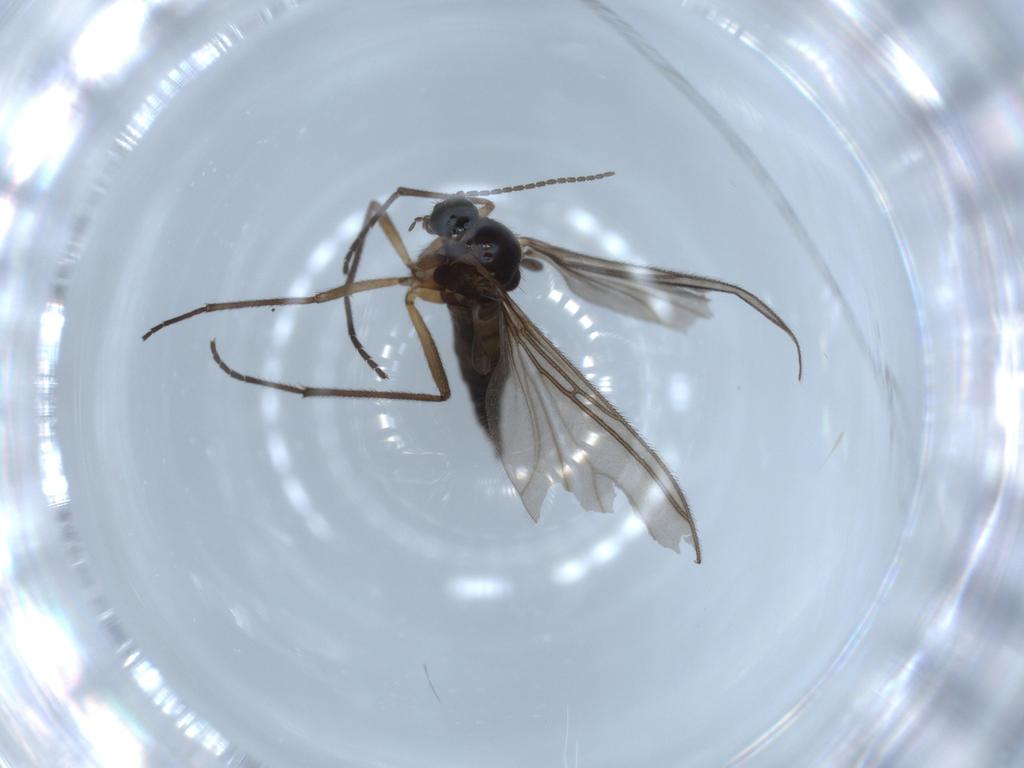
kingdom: Animalia
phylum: Arthropoda
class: Insecta
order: Diptera
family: Sciaridae
